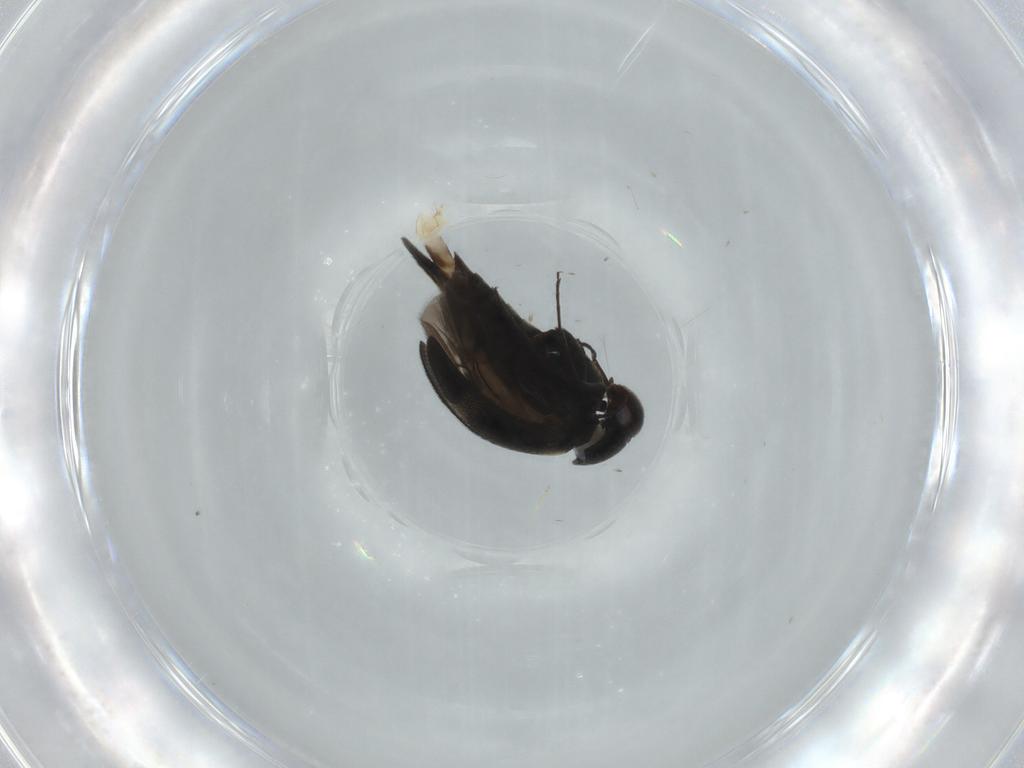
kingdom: Animalia
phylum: Arthropoda
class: Insecta
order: Coleoptera
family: Mordellidae
